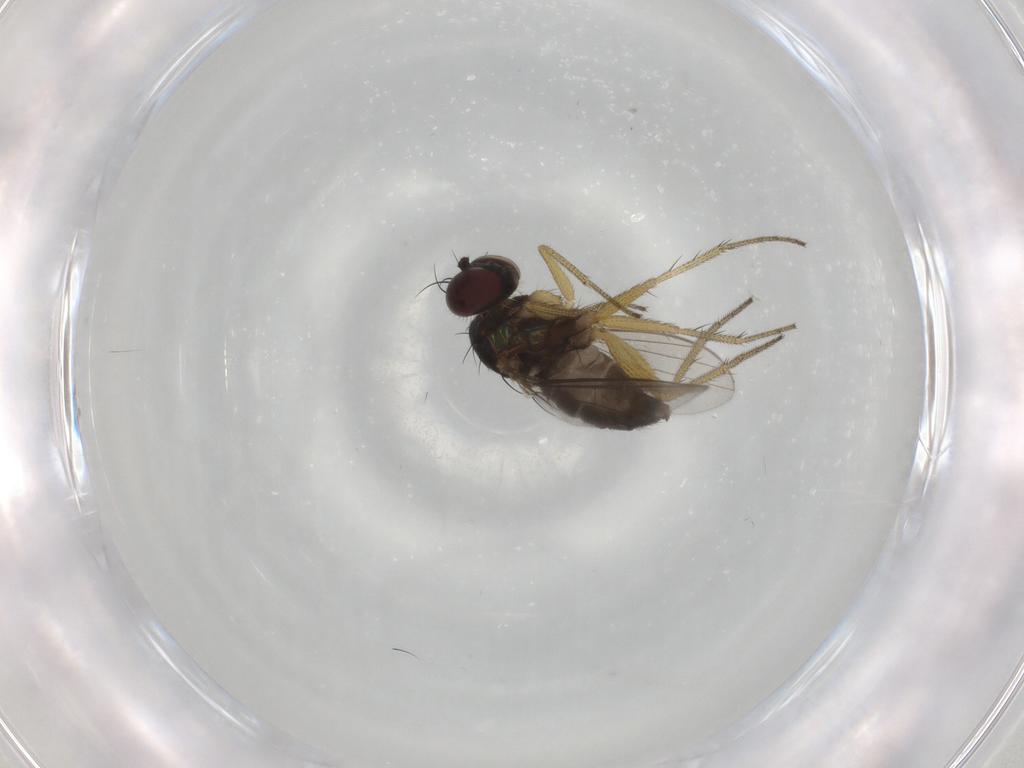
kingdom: Animalia
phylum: Arthropoda
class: Insecta
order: Diptera
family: Dolichopodidae
